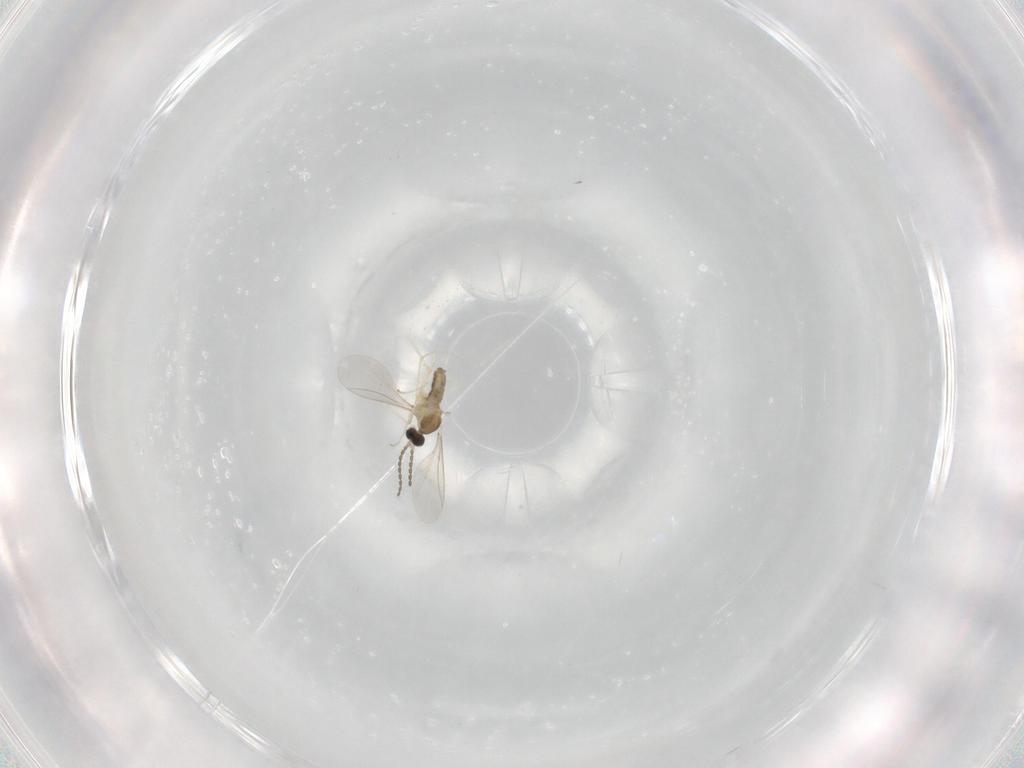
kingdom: Animalia
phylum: Arthropoda
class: Insecta
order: Diptera
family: Cecidomyiidae
